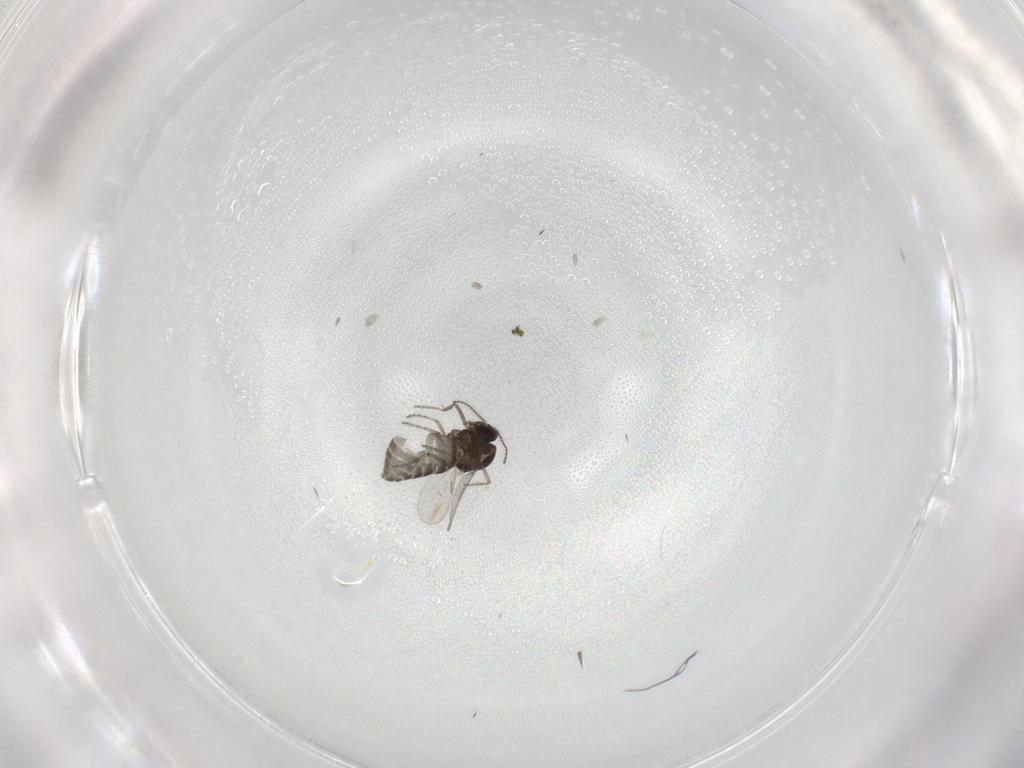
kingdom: Animalia
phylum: Arthropoda
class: Insecta
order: Diptera
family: Ceratopogonidae
